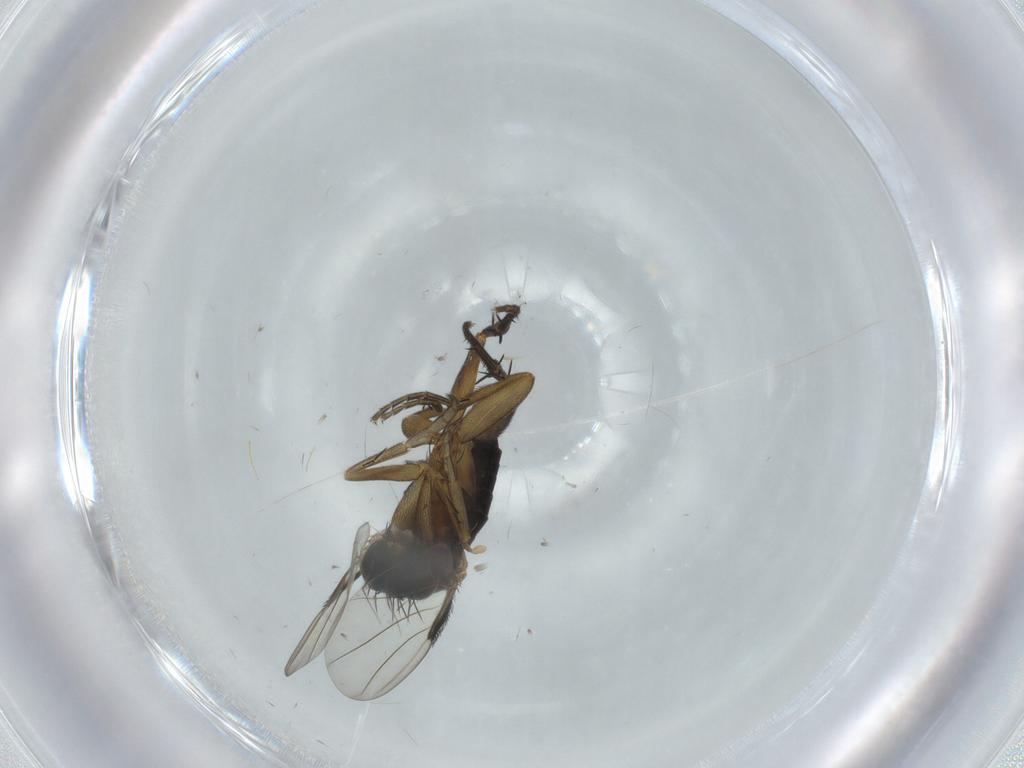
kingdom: Animalia
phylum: Arthropoda
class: Insecta
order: Diptera
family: Phoridae
